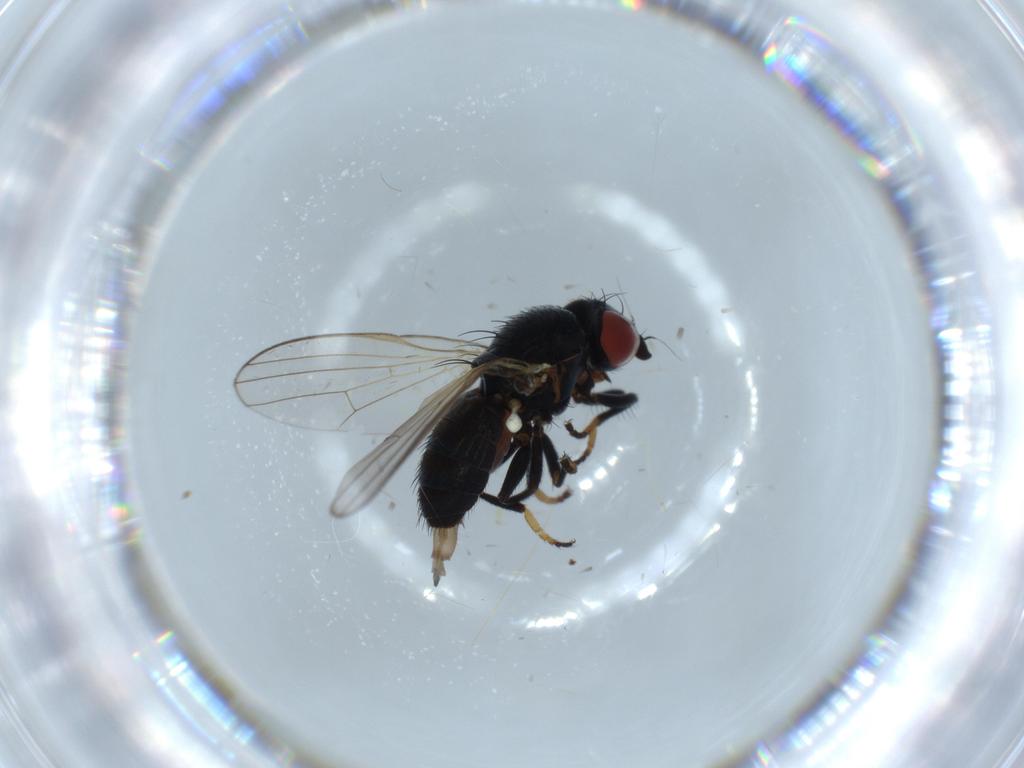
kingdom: Animalia
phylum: Arthropoda
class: Insecta
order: Diptera
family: Chamaemyiidae
